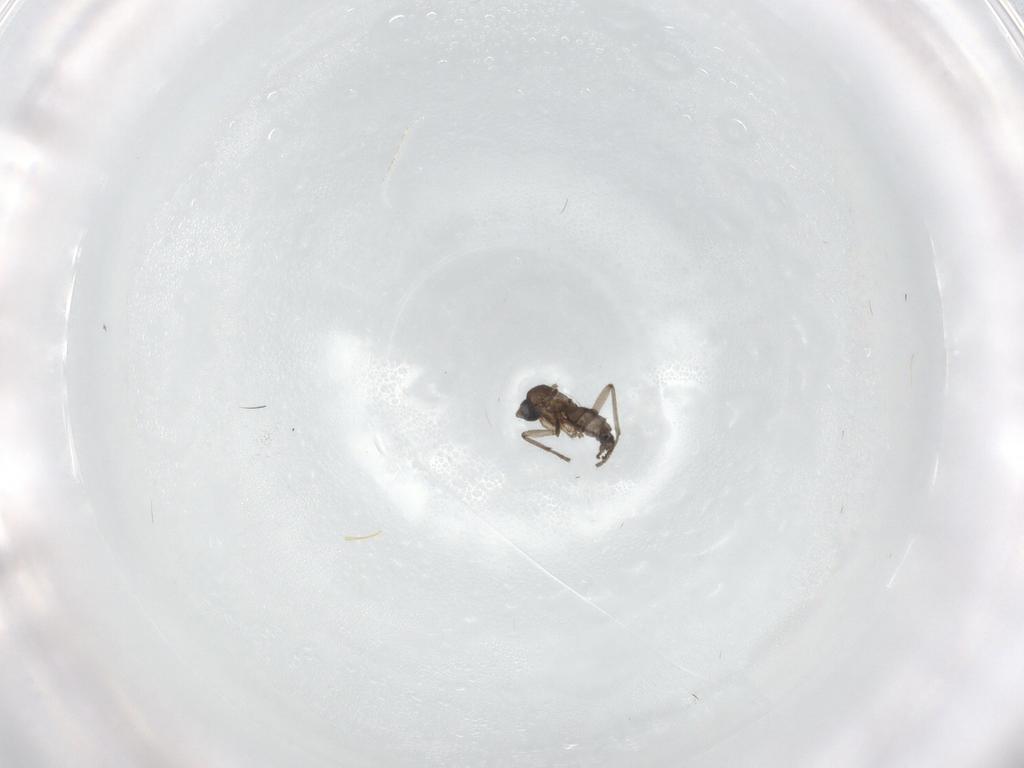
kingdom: Animalia
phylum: Arthropoda
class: Insecta
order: Diptera
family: Sciaridae
